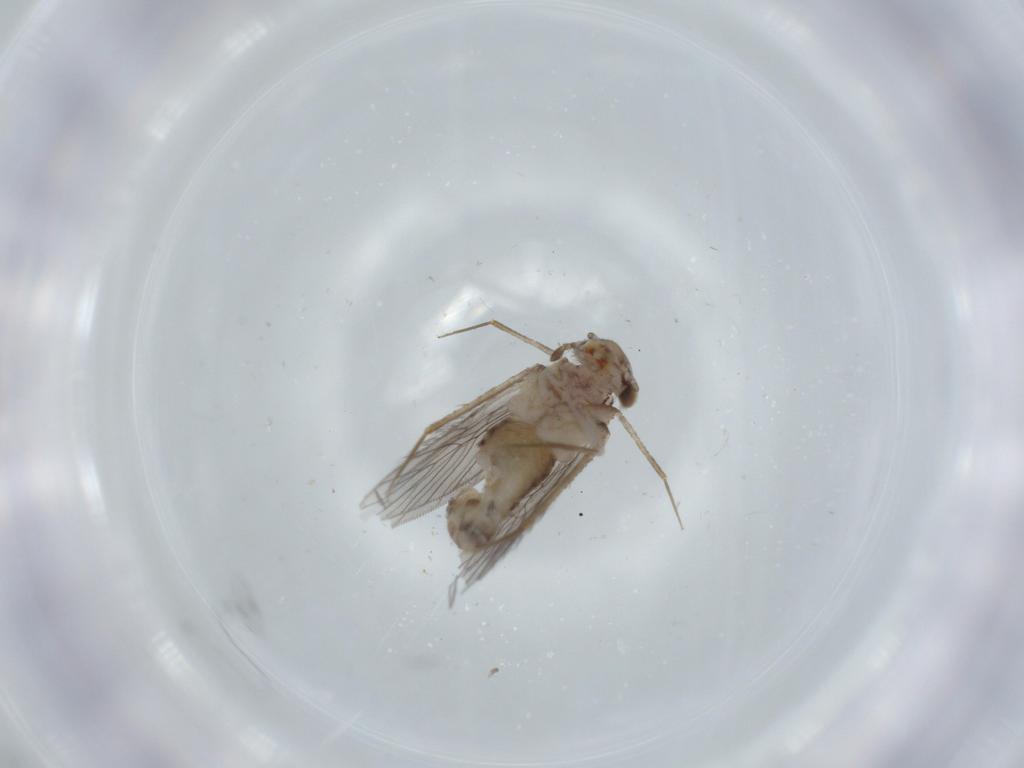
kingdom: Animalia
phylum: Arthropoda
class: Insecta
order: Psocodea
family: Lepidopsocidae
